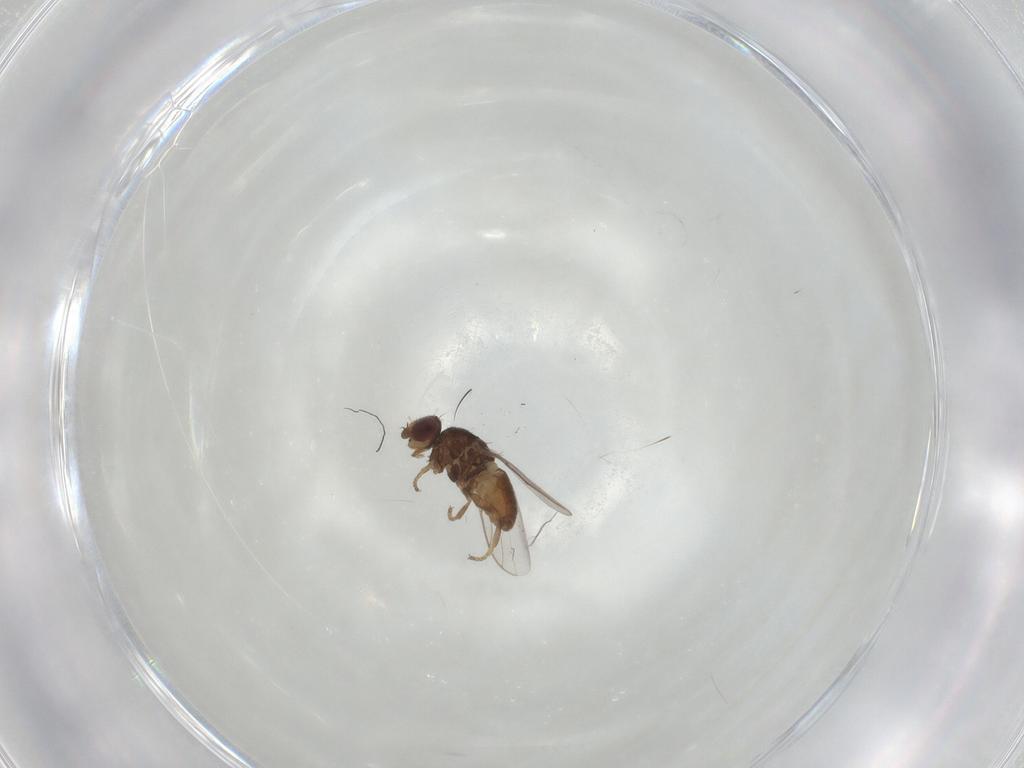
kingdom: Animalia
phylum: Arthropoda
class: Insecta
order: Diptera
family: Chloropidae
